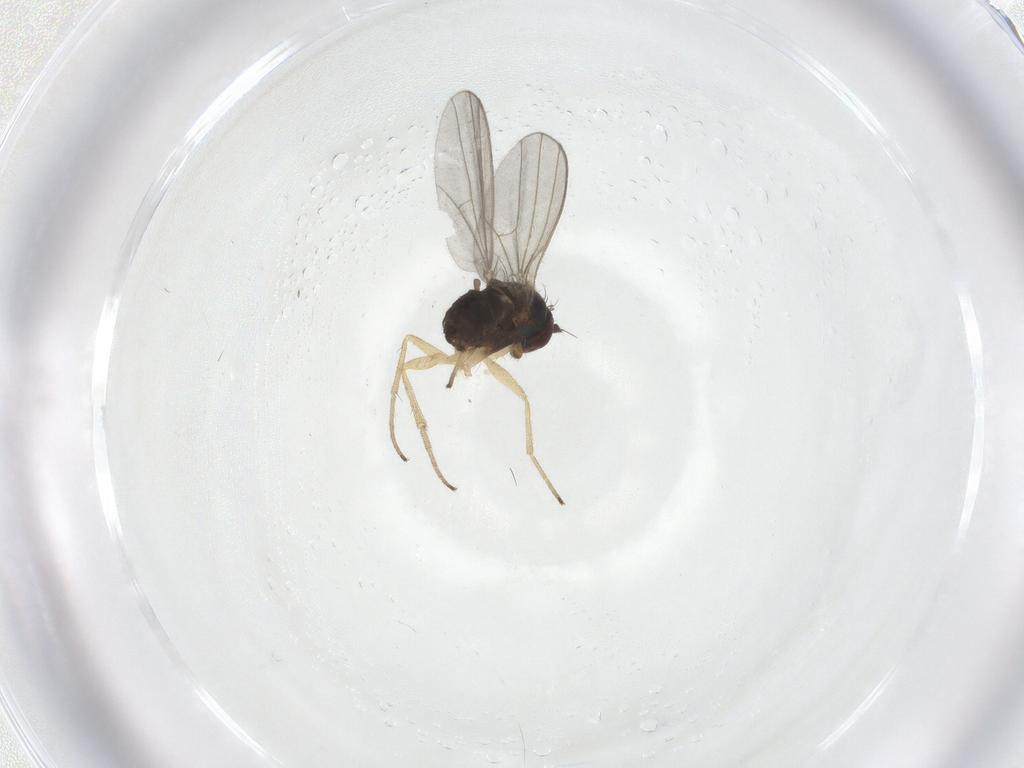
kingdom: Animalia
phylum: Arthropoda
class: Insecta
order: Diptera
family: Dolichopodidae
